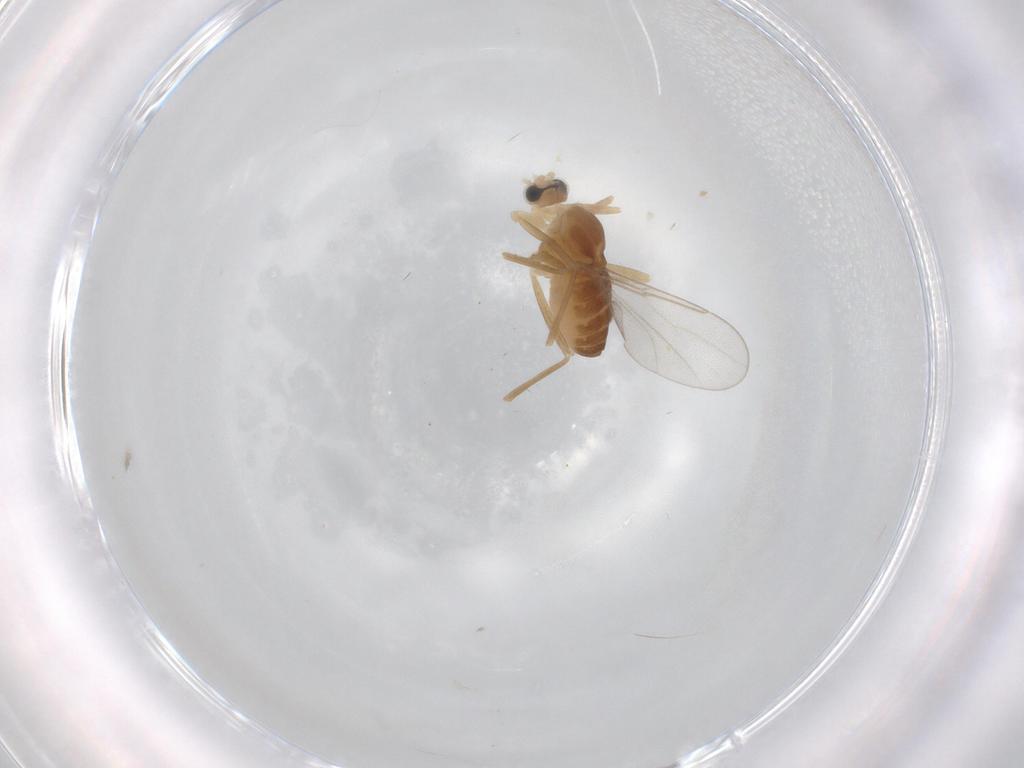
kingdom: Animalia
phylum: Arthropoda
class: Insecta
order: Diptera
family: Cecidomyiidae
